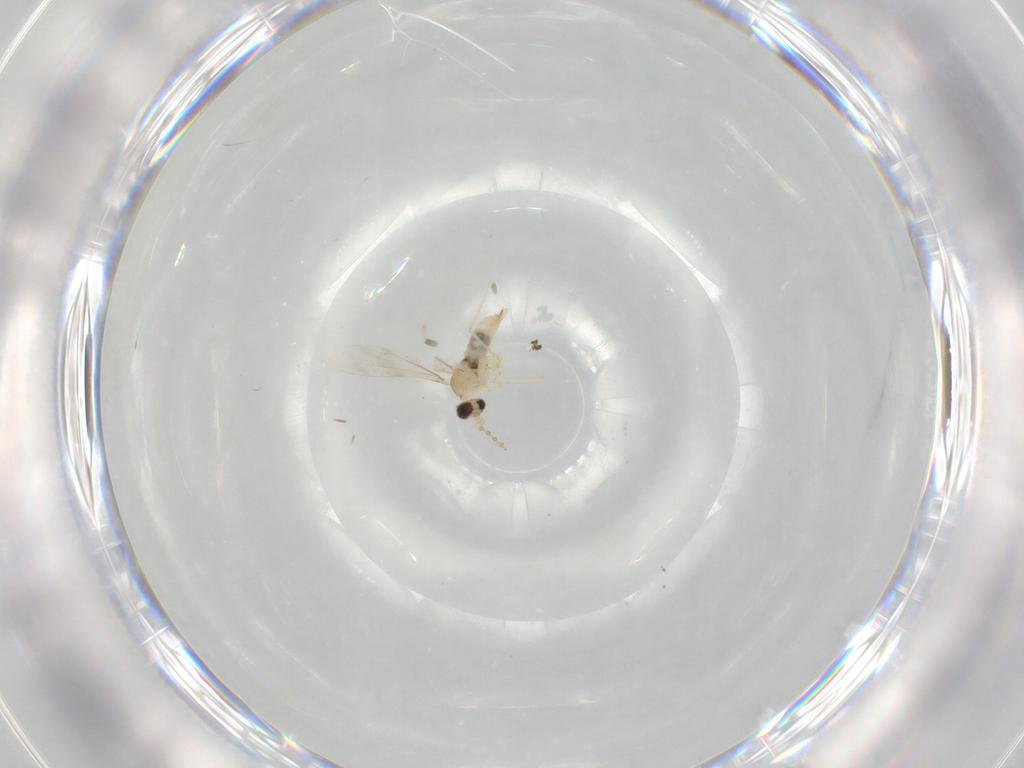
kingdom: Animalia
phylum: Arthropoda
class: Insecta
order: Diptera
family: Cecidomyiidae
